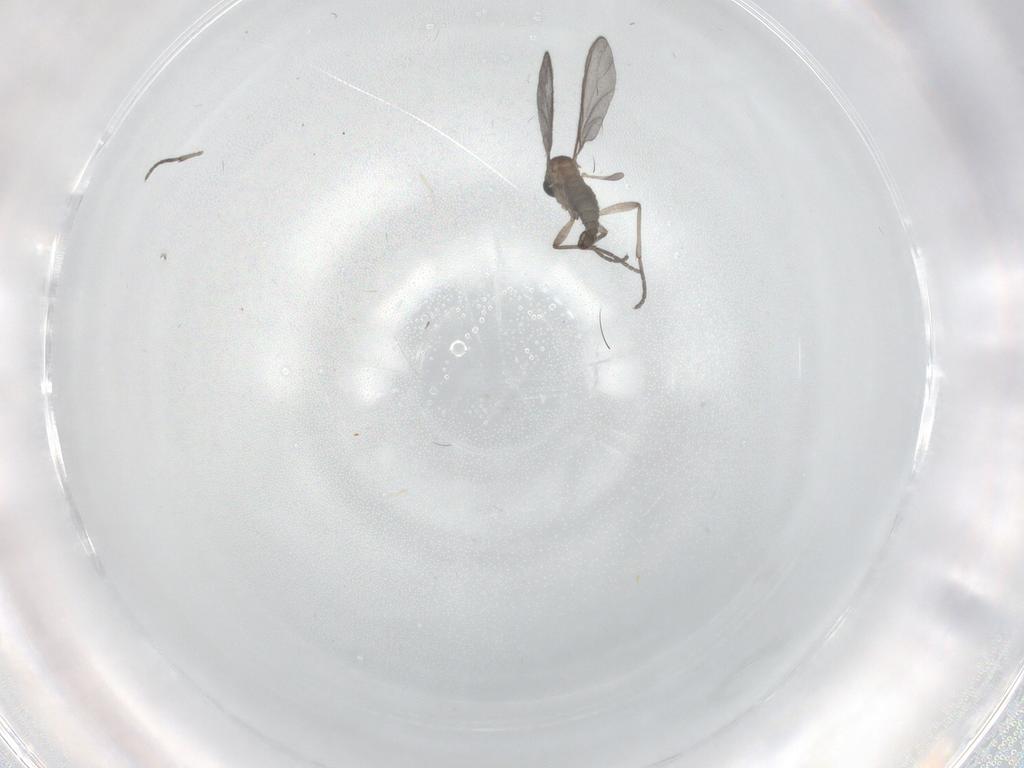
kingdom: Animalia
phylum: Arthropoda
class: Insecta
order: Diptera
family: Sciaridae
